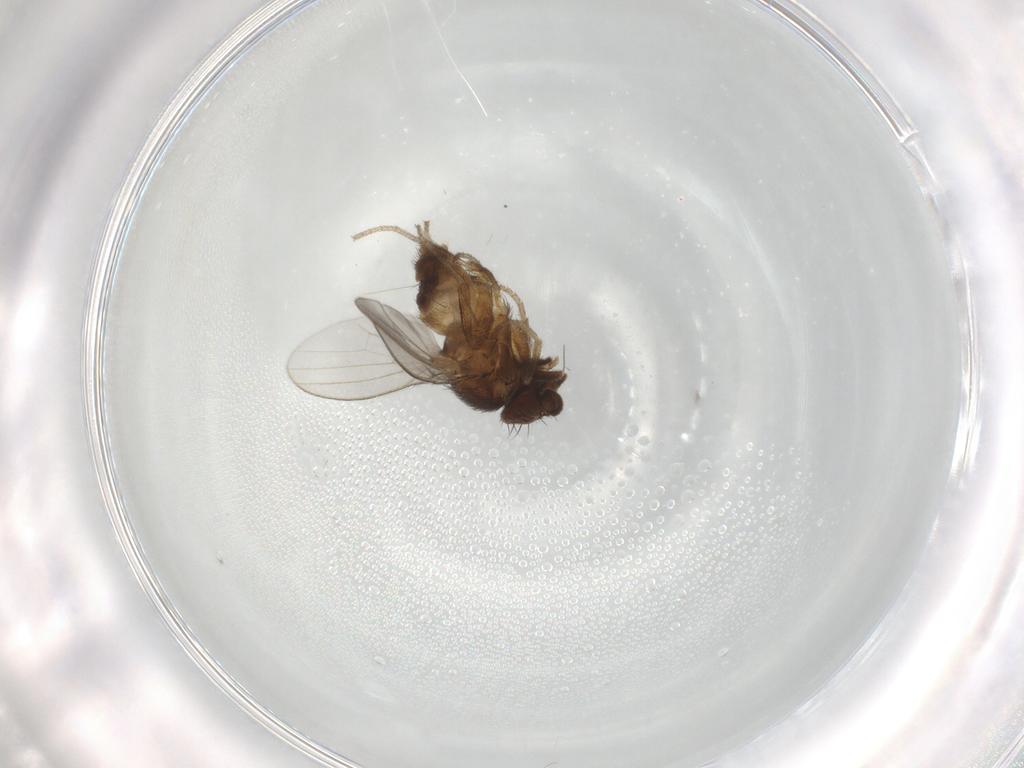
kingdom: Animalia
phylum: Arthropoda
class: Insecta
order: Diptera
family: Milichiidae
